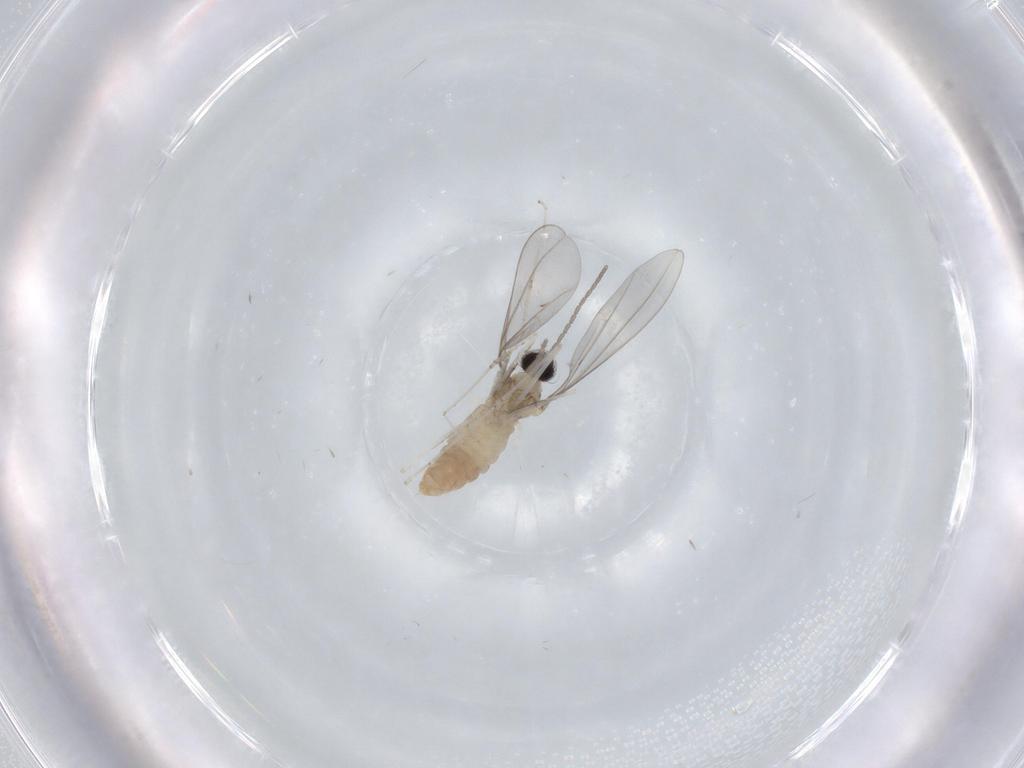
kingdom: Animalia
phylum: Arthropoda
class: Insecta
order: Diptera
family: Cecidomyiidae
